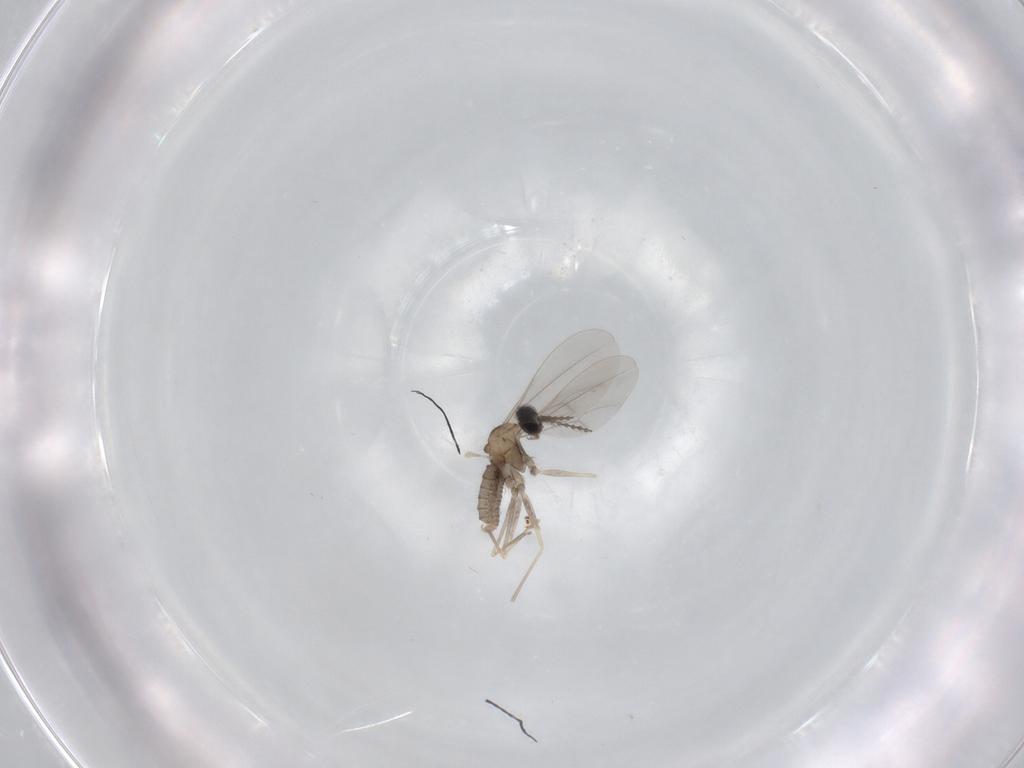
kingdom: Animalia
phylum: Arthropoda
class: Insecta
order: Diptera
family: Cecidomyiidae
